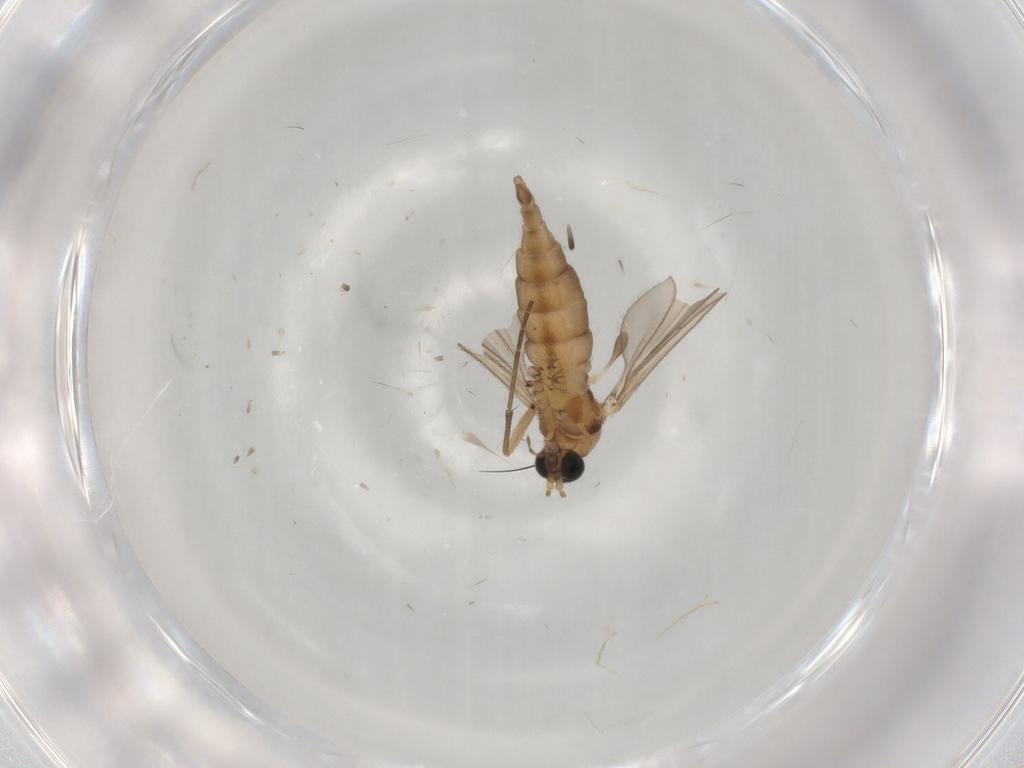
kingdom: Animalia
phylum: Arthropoda
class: Insecta
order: Diptera
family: Sciaridae
